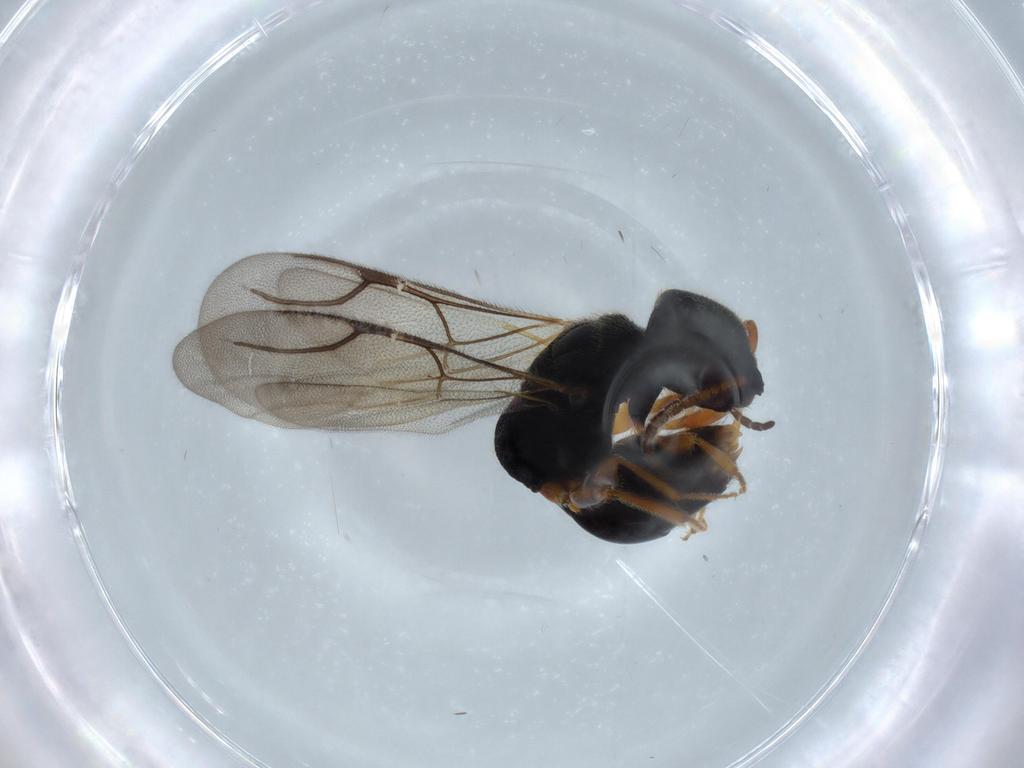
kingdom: Animalia
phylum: Arthropoda
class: Insecta
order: Hymenoptera
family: Bethylidae
